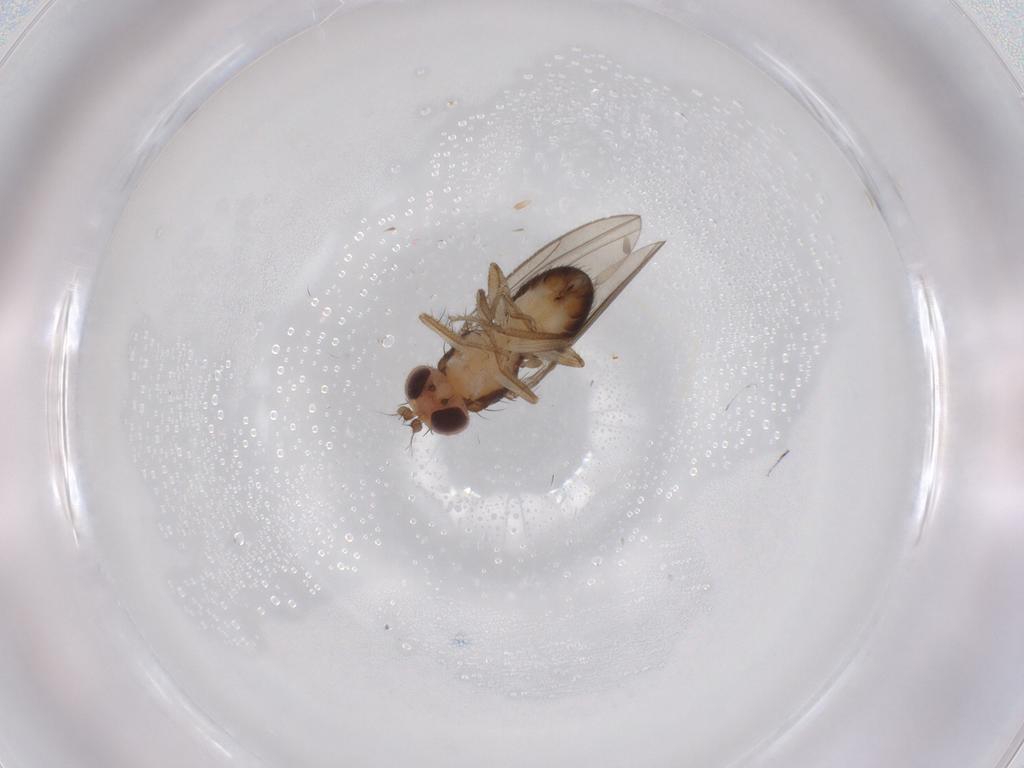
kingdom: Animalia
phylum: Arthropoda
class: Insecta
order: Diptera
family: Drosophilidae
